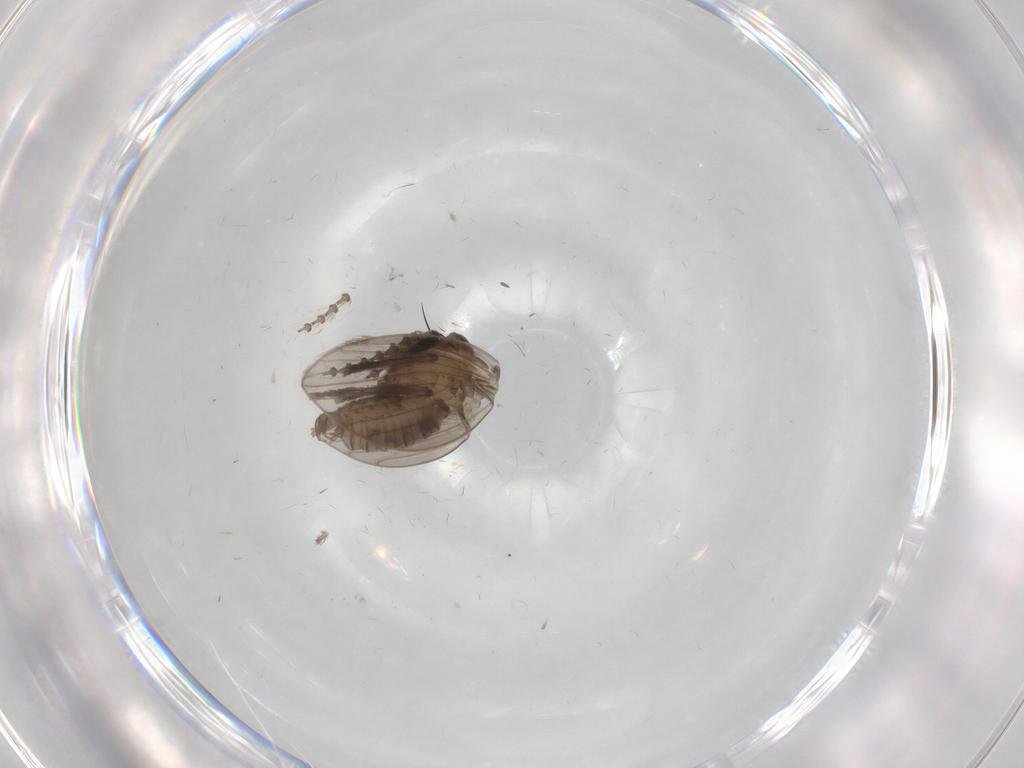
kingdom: Animalia
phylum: Arthropoda
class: Insecta
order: Diptera
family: Psychodidae
